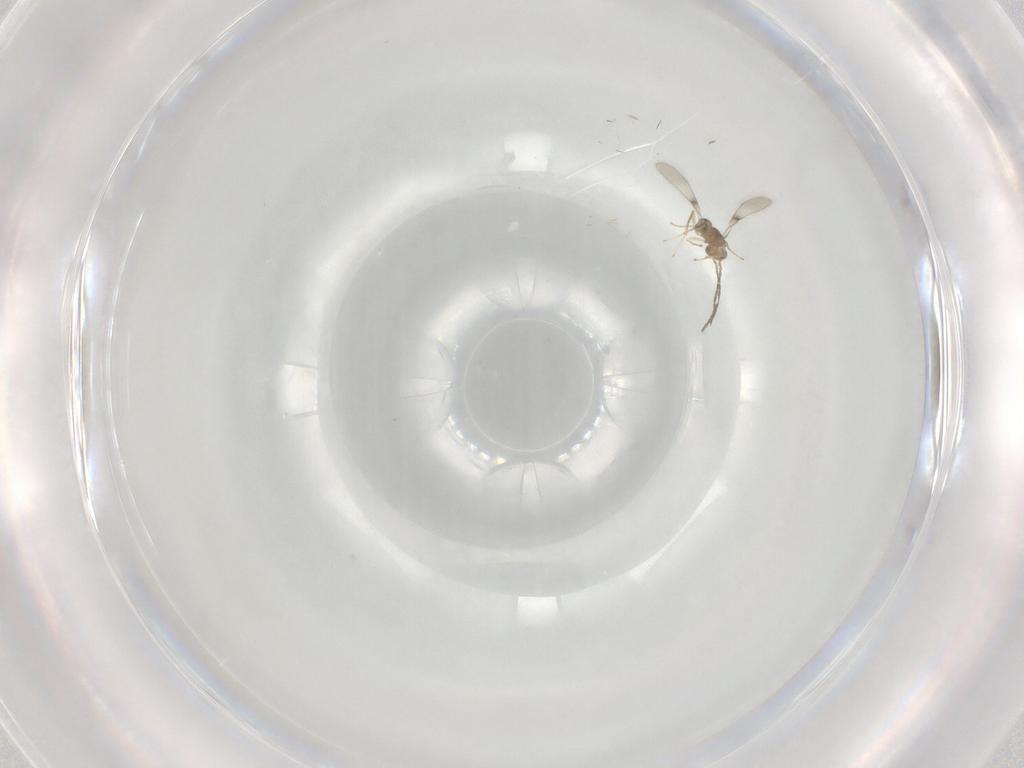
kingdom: Animalia
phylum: Arthropoda
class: Insecta
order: Hymenoptera
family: Mymaridae
